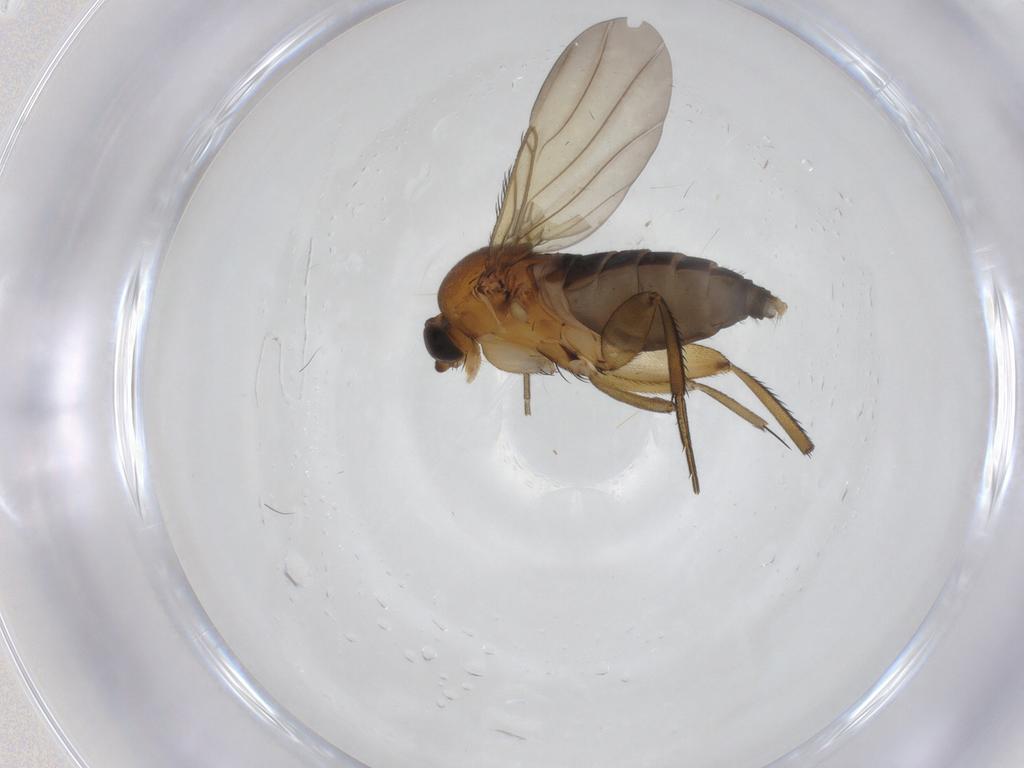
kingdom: Animalia
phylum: Arthropoda
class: Insecta
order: Diptera
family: Phoridae
